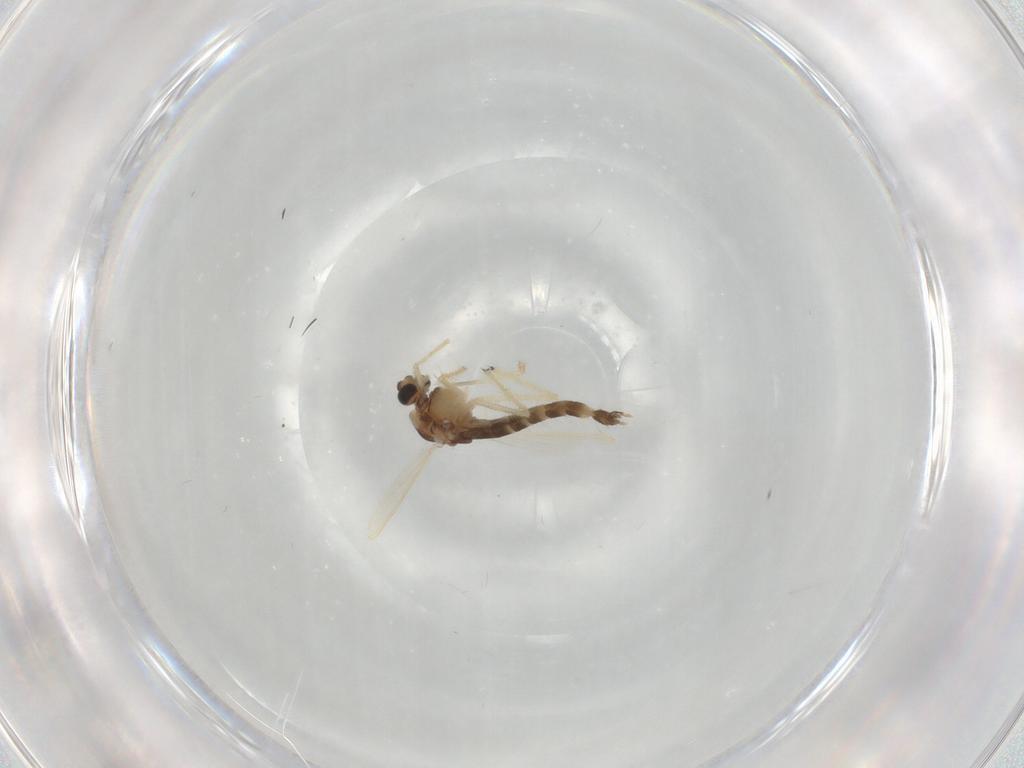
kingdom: Animalia
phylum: Arthropoda
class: Insecta
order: Diptera
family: Chironomidae
